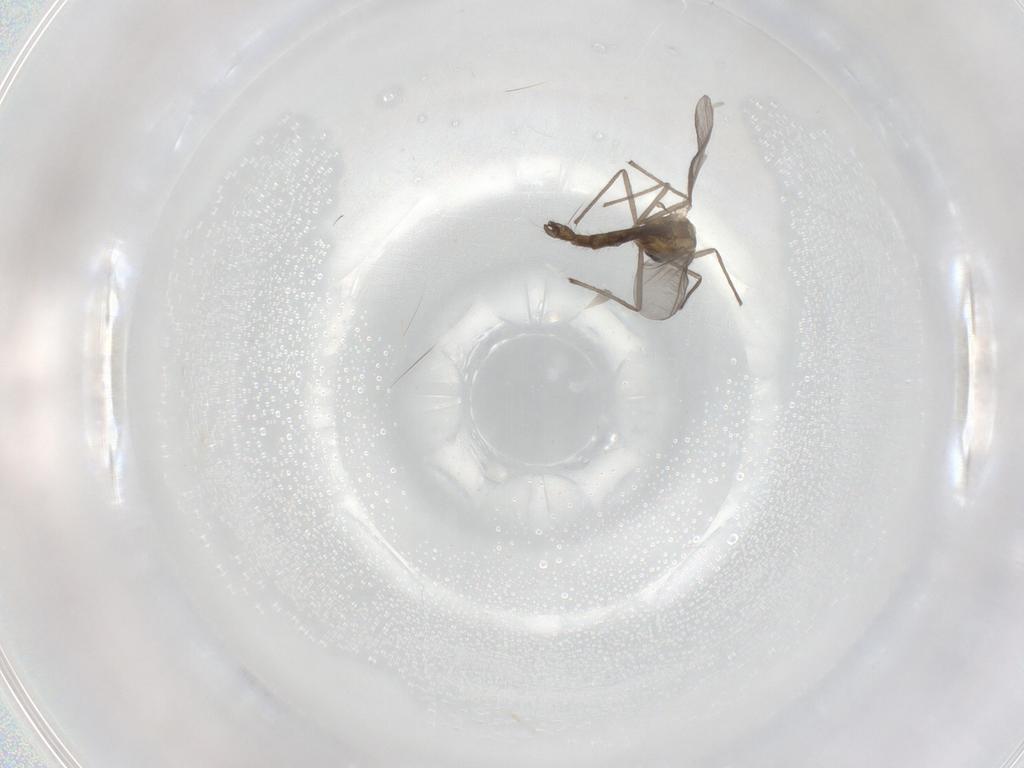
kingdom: Animalia
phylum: Arthropoda
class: Insecta
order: Diptera
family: Chironomidae
